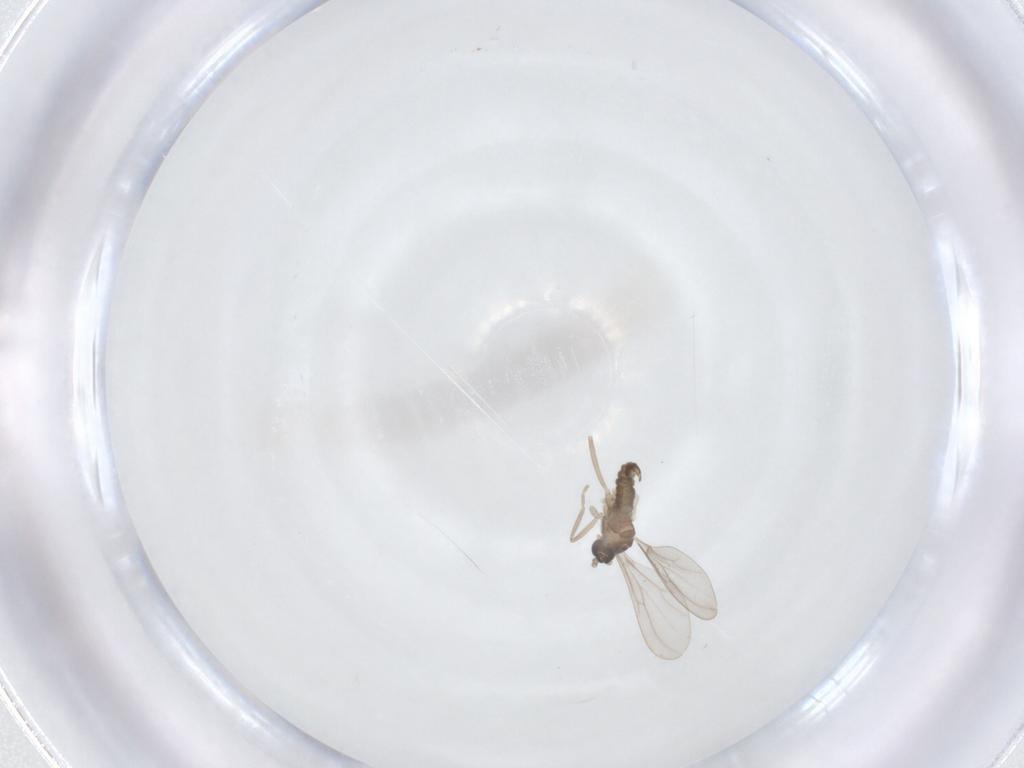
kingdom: Animalia
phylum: Arthropoda
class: Insecta
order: Diptera
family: Cecidomyiidae
